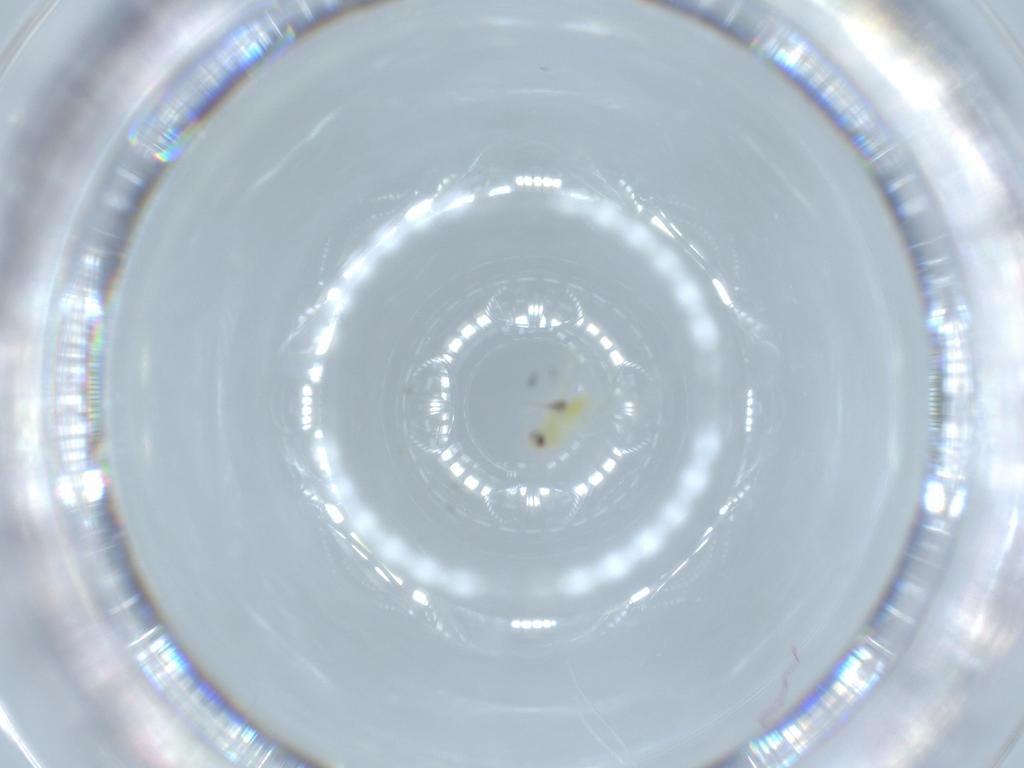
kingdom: Animalia
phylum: Arthropoda
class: Insecta
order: Hemiptera
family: Aleyrodidae
